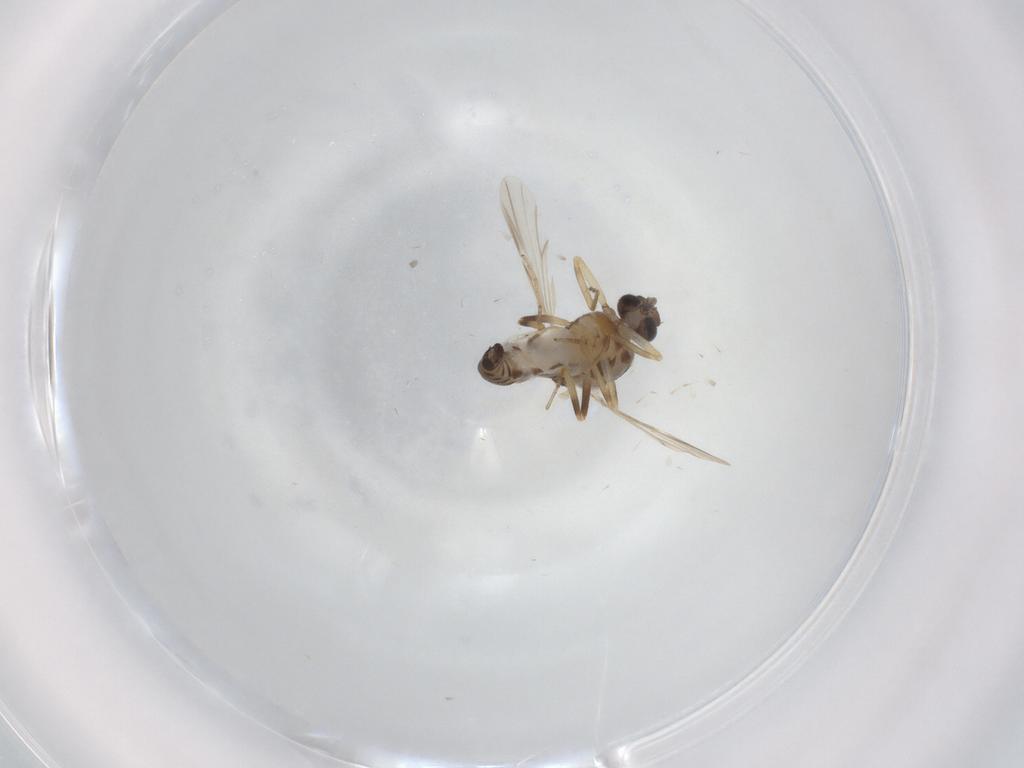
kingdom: Animalia
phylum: Arthropoda
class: Insecta
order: Diptera
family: Ceratopogonidae
